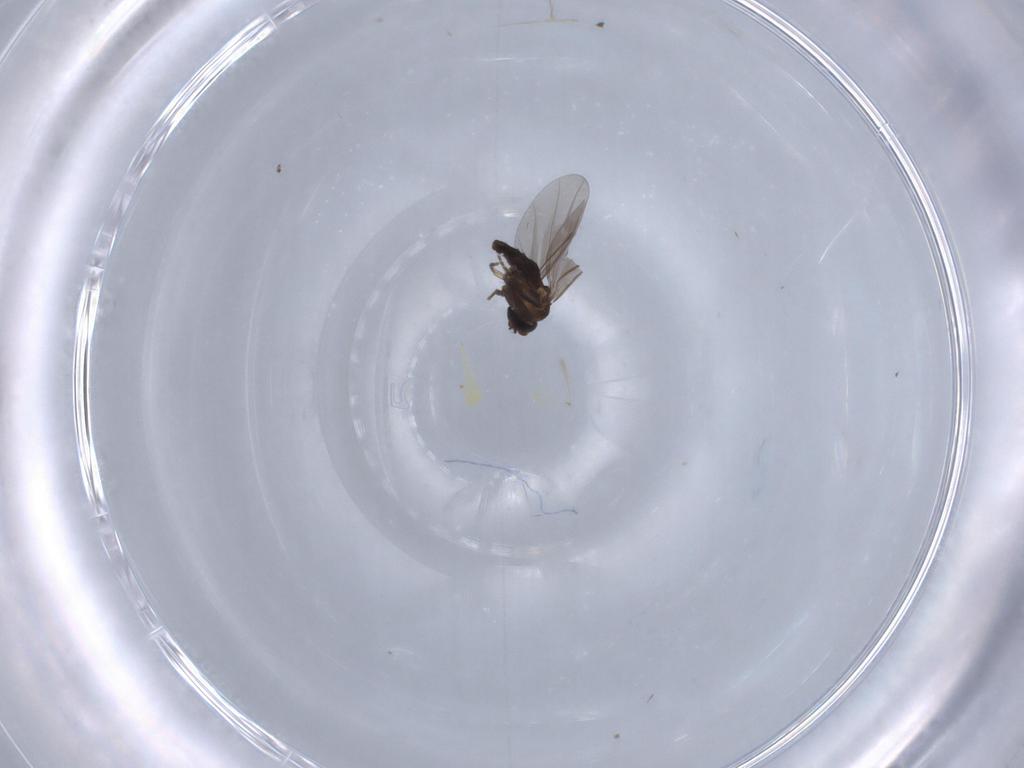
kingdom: Animalia
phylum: Arthropoda
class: Insecta
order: Diptera
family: Phoridae
